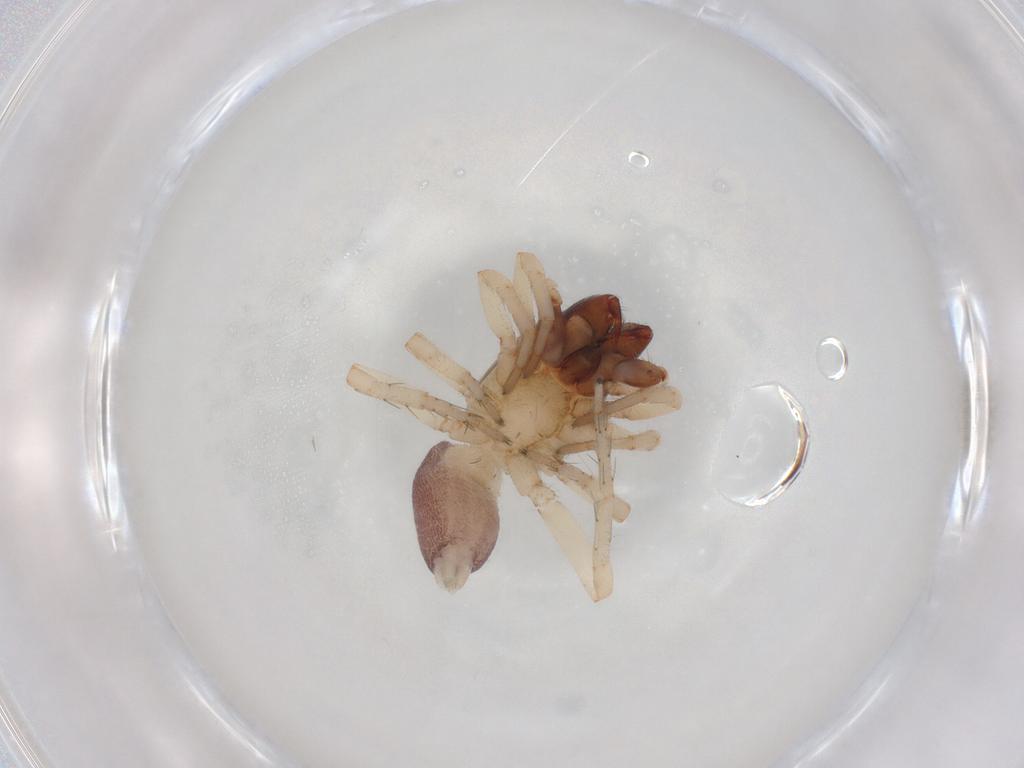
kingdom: Animalia
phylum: Arthropoda
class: Arachnida
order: Araneae
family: Clubionidae
